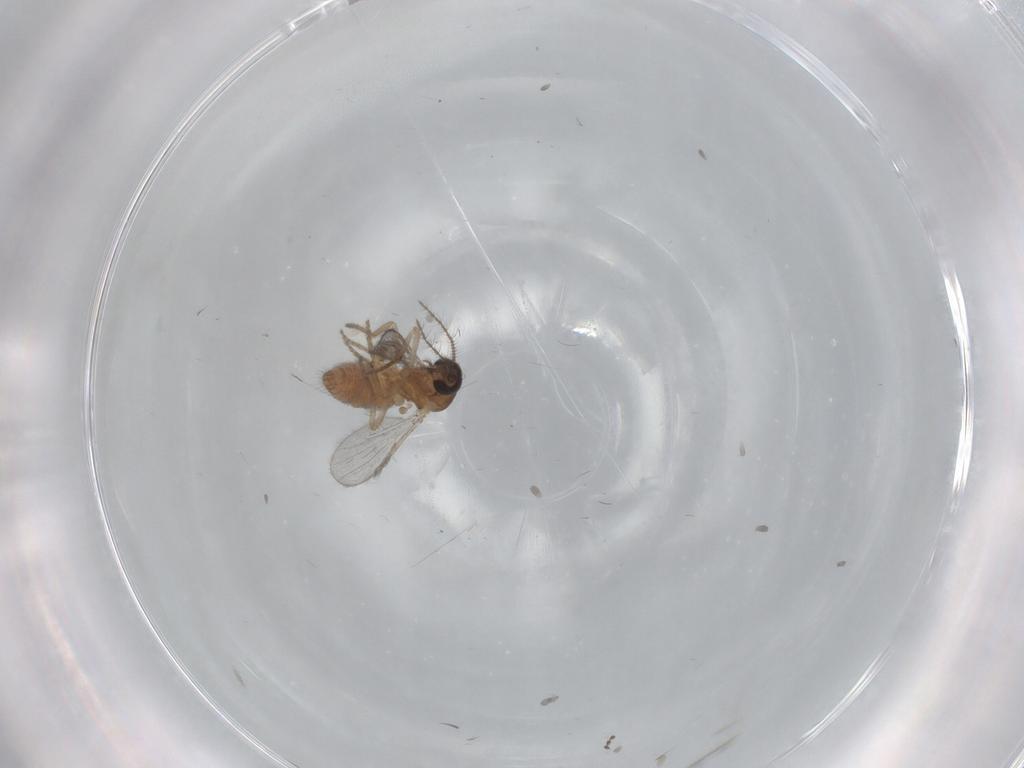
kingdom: Animalia
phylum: Arthropoda
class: Insecta
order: Diptera
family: Ceratopogonidae
